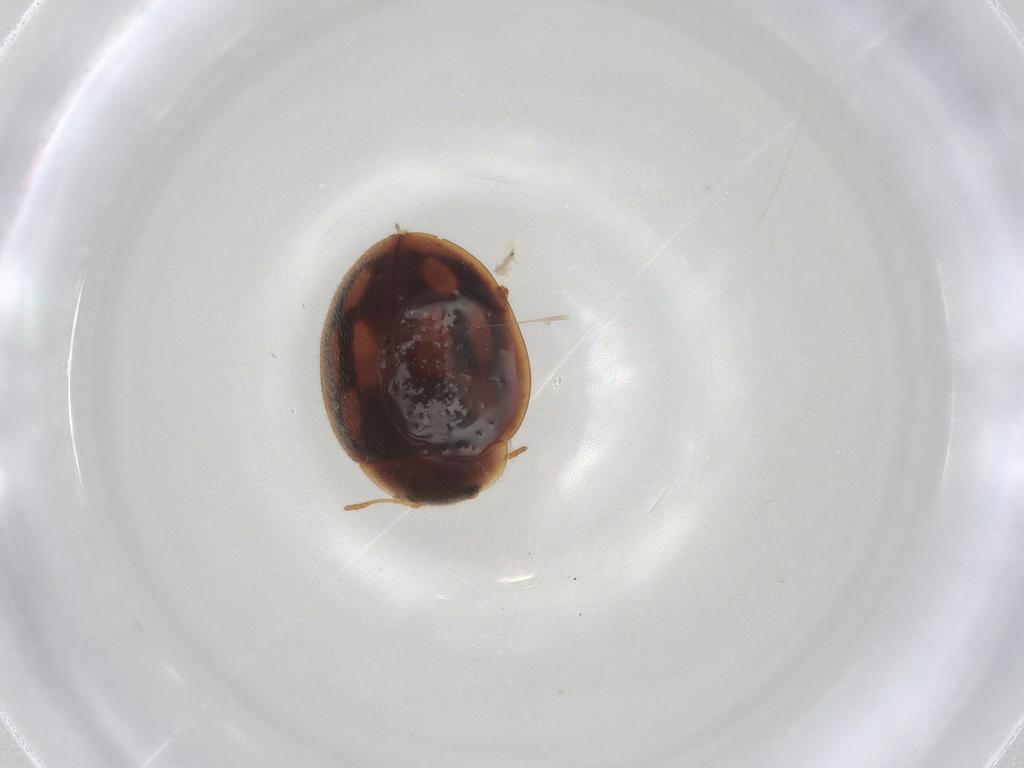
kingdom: Animalia
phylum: Arthropoda
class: Insecta
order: Coleoptera
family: Coccinellidae
